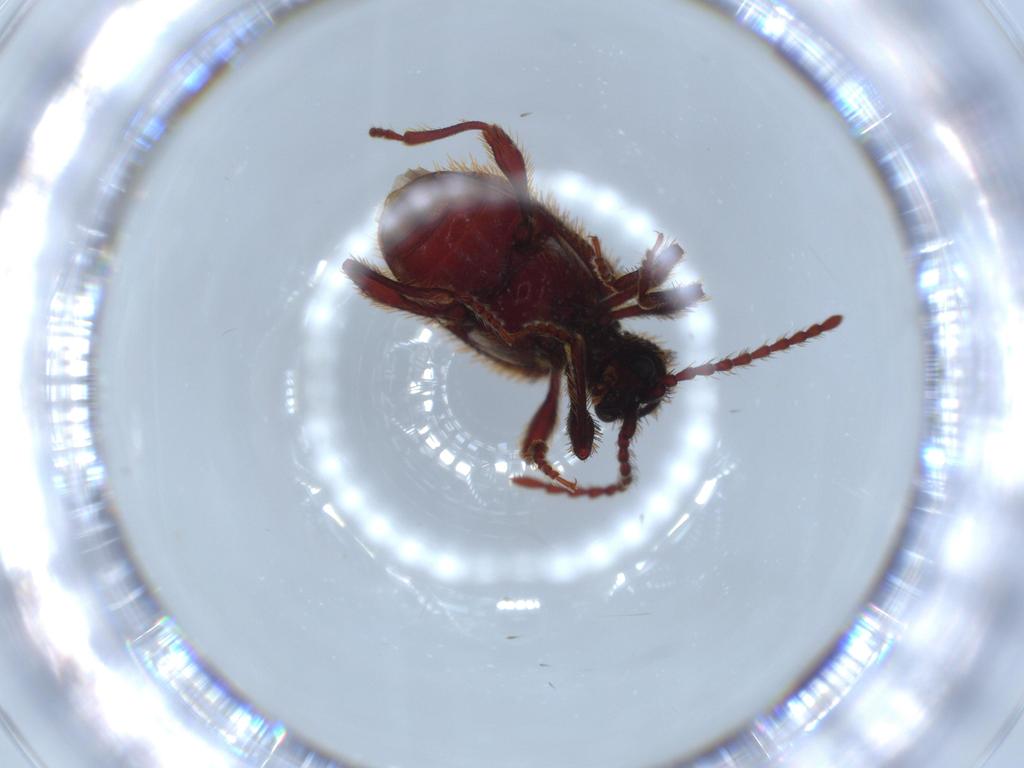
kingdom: Animalia
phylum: Arthropoda
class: Insecta
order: Coleoptera
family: Ptinidae
